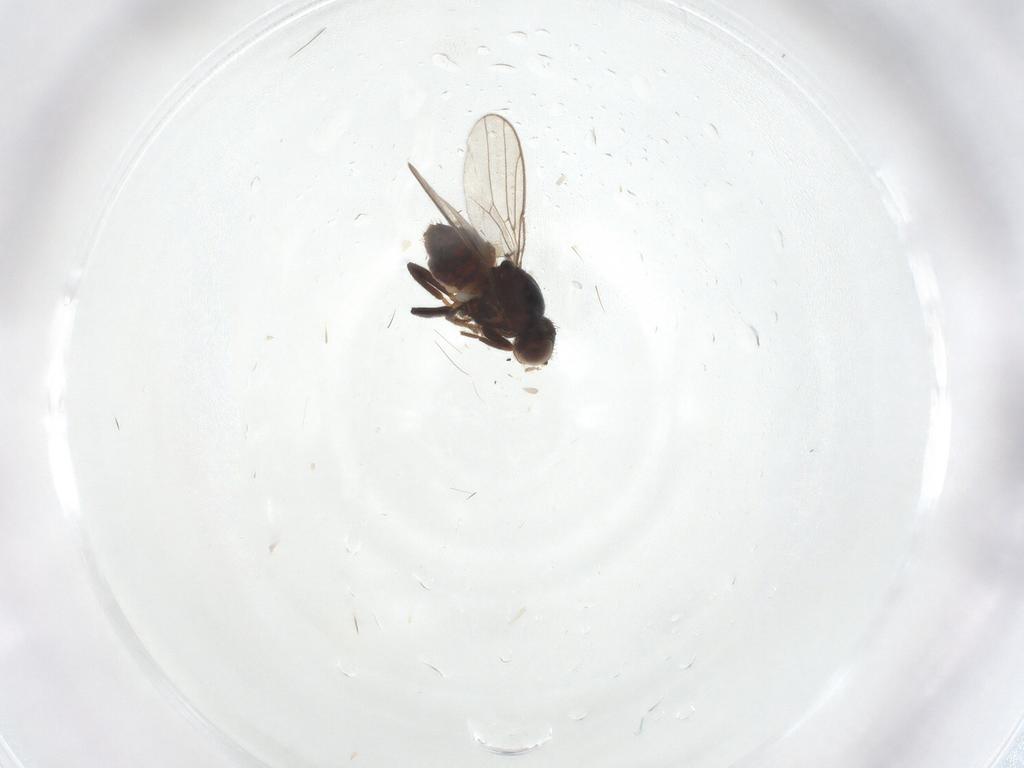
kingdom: Animalia
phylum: Arthropoda
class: Insecta
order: Diptera
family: Chloropidae
